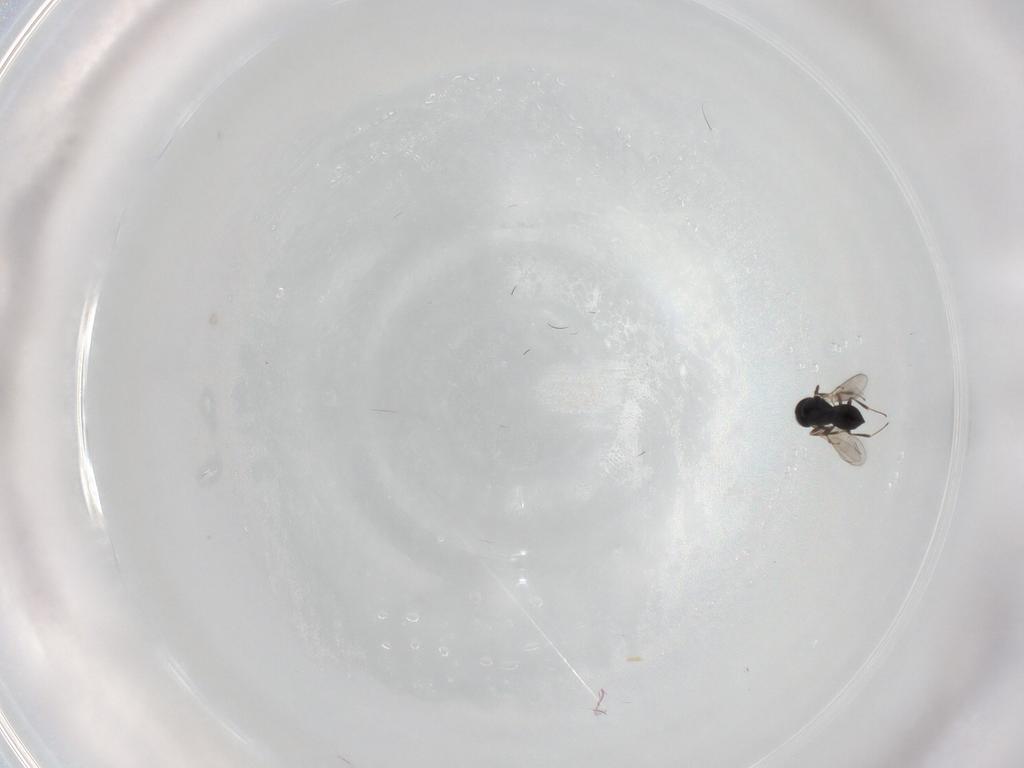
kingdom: Animalia
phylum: Arthropoda
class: Insecta
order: Hymenoptera
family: Scelionidae
